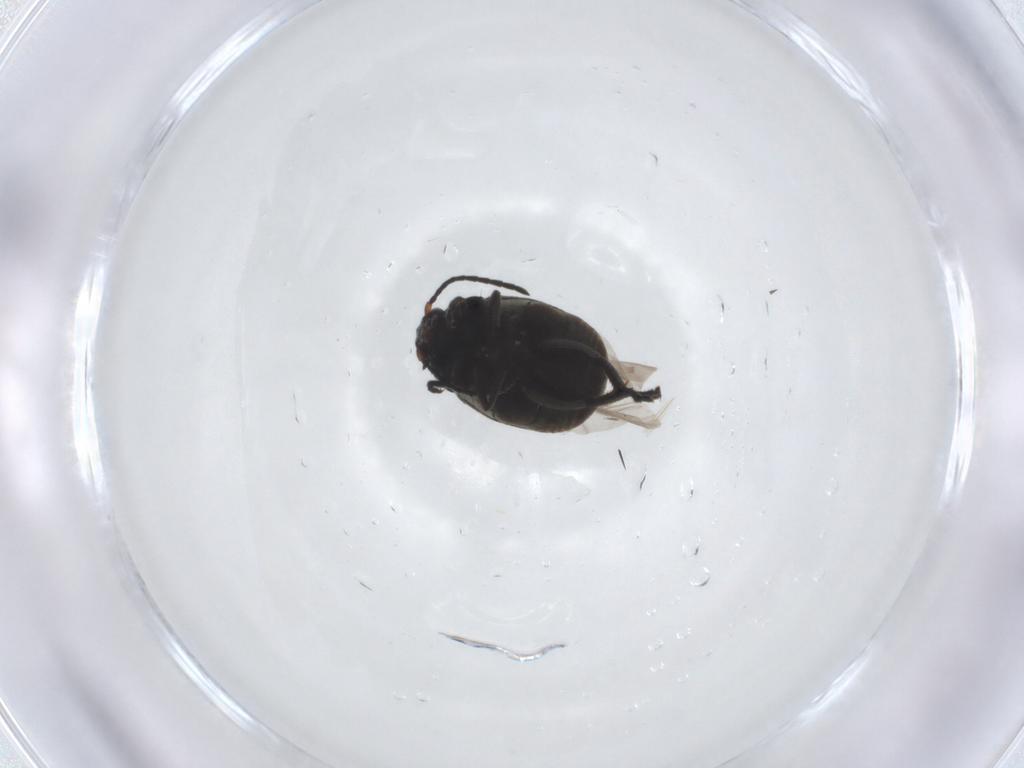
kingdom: Animalia
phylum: Arthropoda
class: Insecta
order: Coleoptera
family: Chrysomelidae
